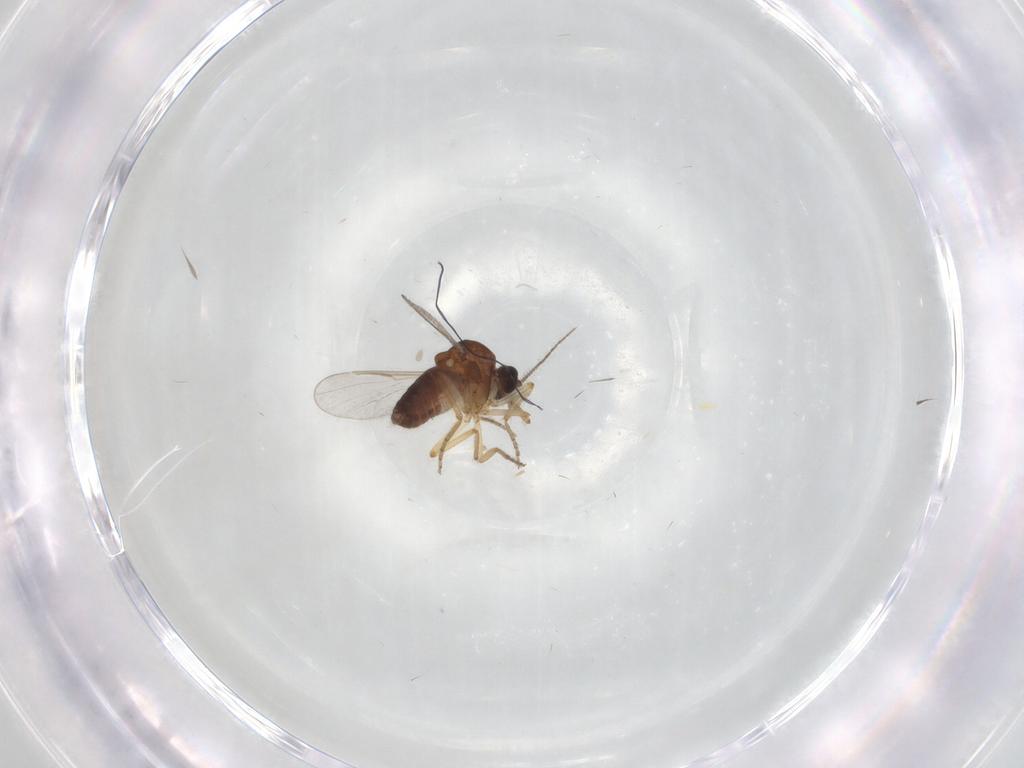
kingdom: Animalia
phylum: Arthropoda
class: Insecta
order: Diptera
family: Ceratopogonidae
